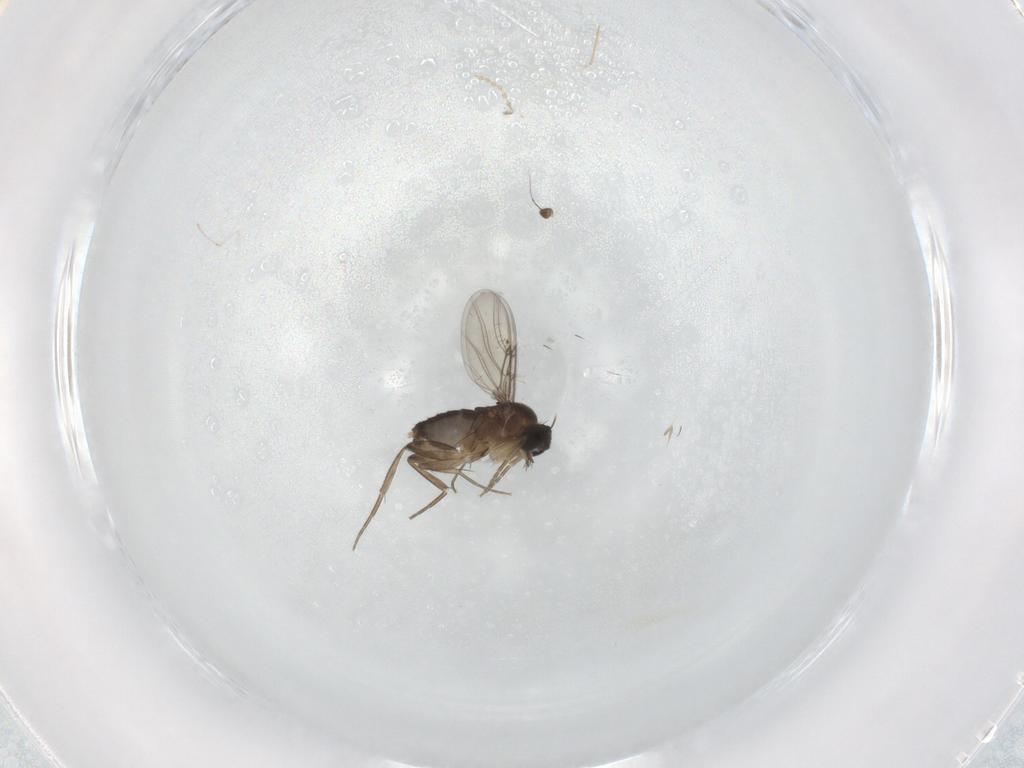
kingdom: Animalia
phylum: Arthropoda
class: Insecta
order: Diptera
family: Phoridae
